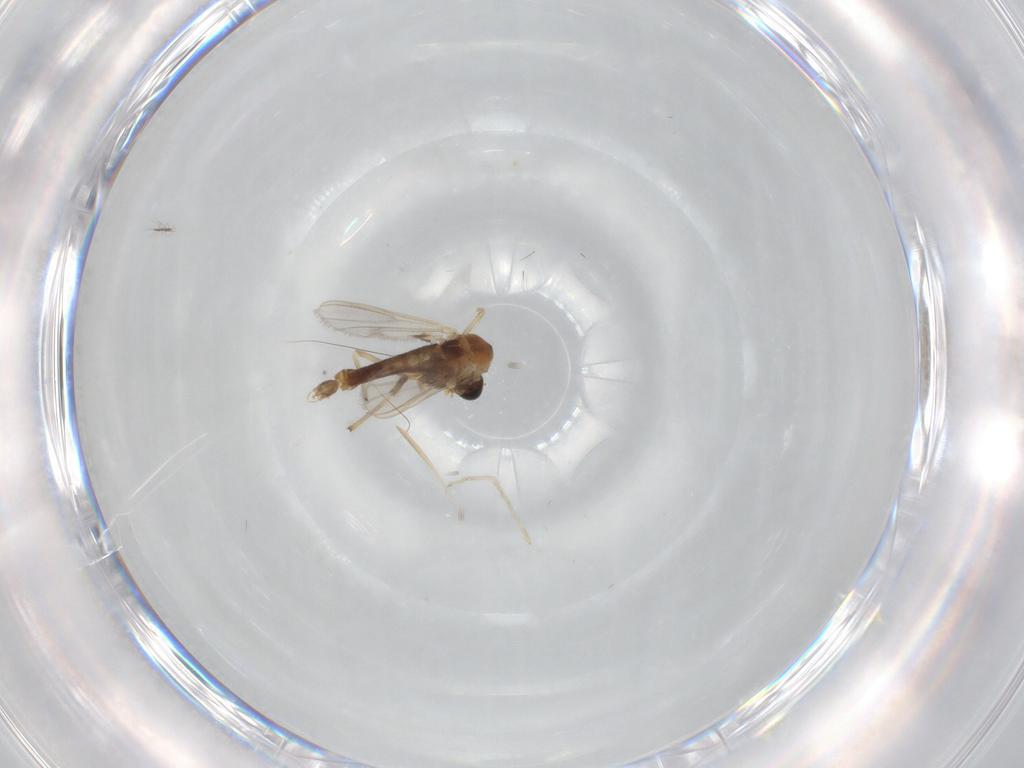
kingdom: Animalia
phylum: Arthropoda
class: Insecta
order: Diptera
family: Chironomidae
